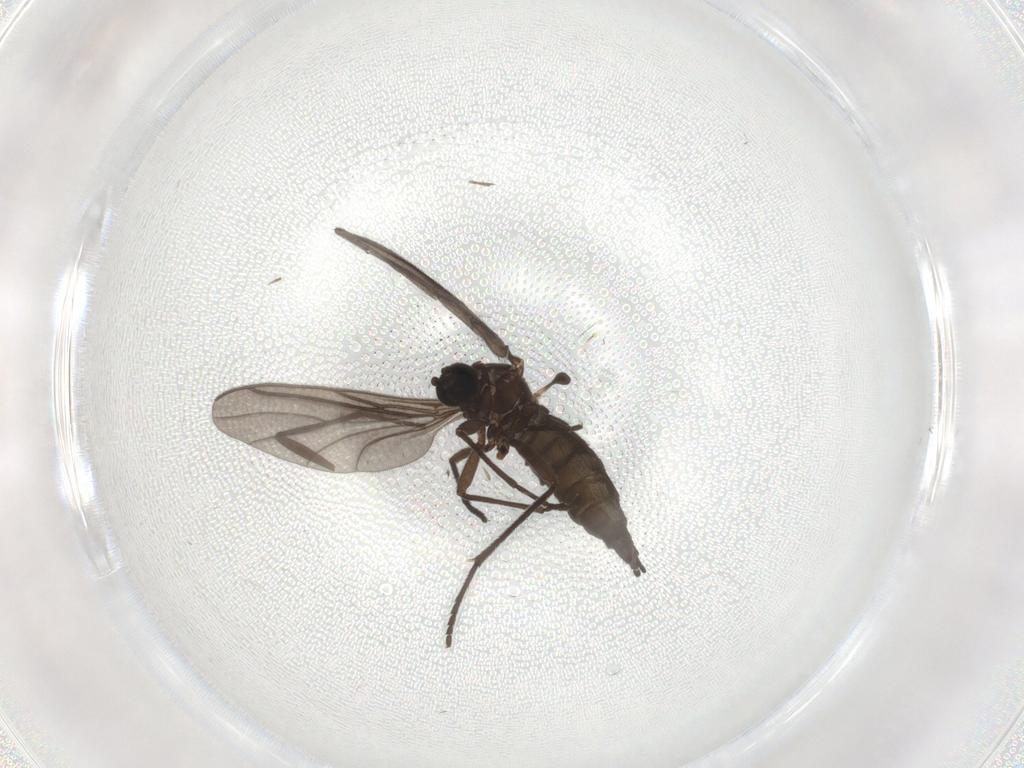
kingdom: Animalia
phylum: Arthropoda
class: Insecta
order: Diptera
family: Sciaridae
